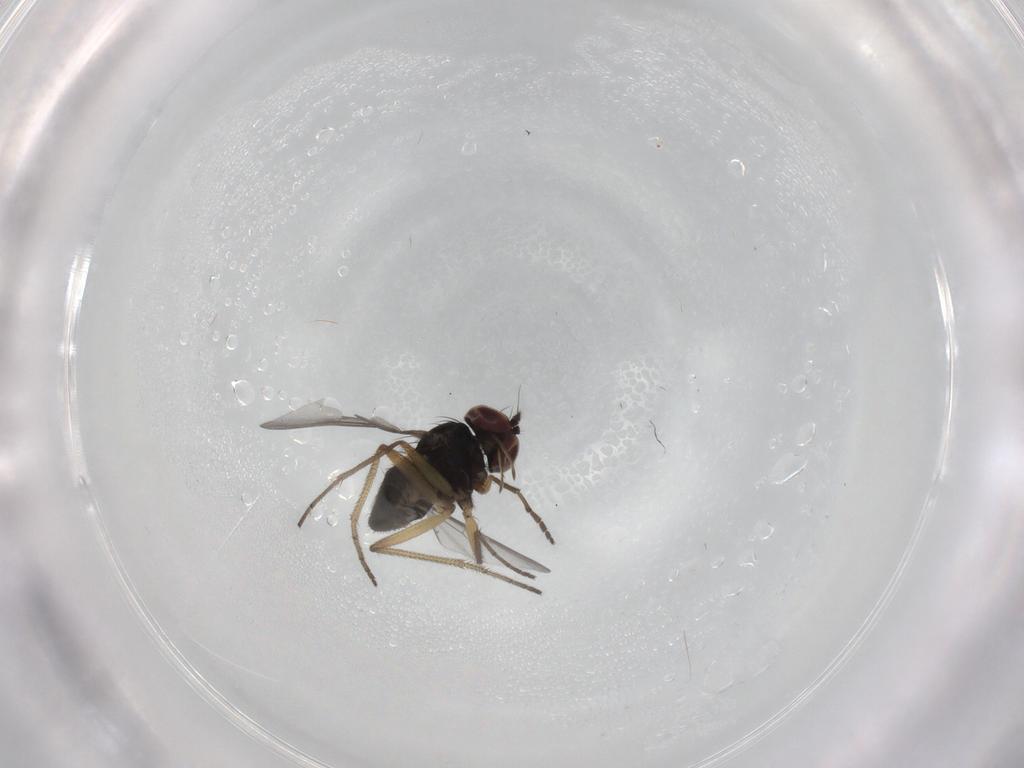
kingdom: Animalia
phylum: Arthropoda
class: Insecta
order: Diptera
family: Dolichopodidae
